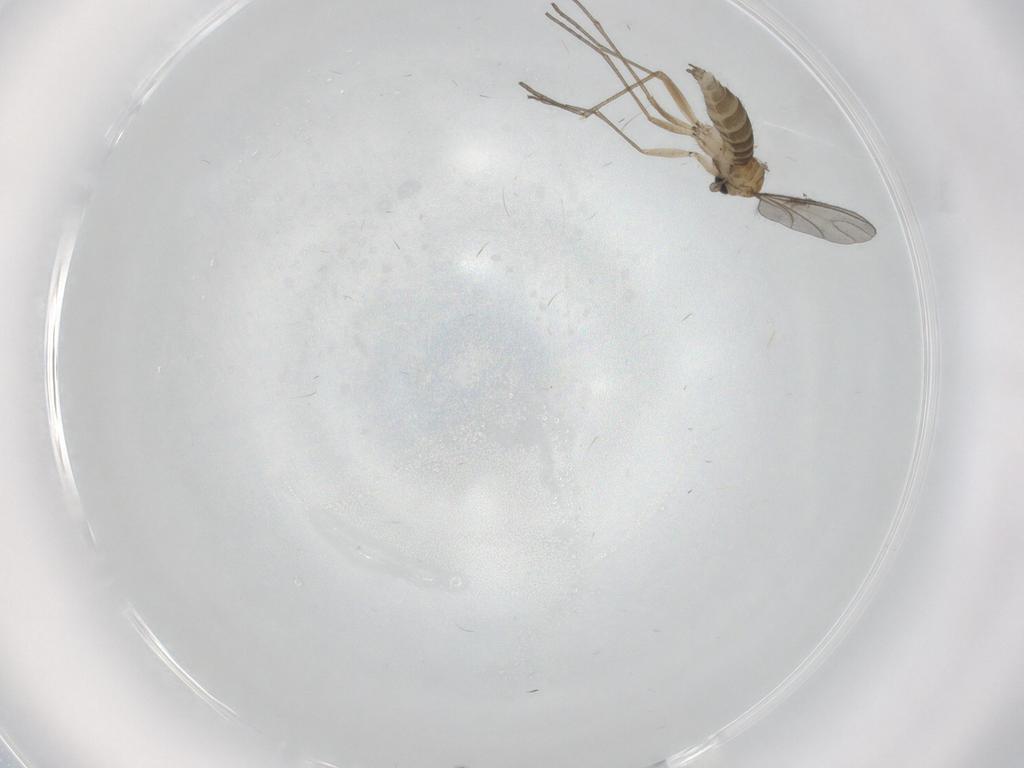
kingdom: Animalia
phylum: Arthropoda
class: Insecta
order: Diptera
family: Sciaridae
